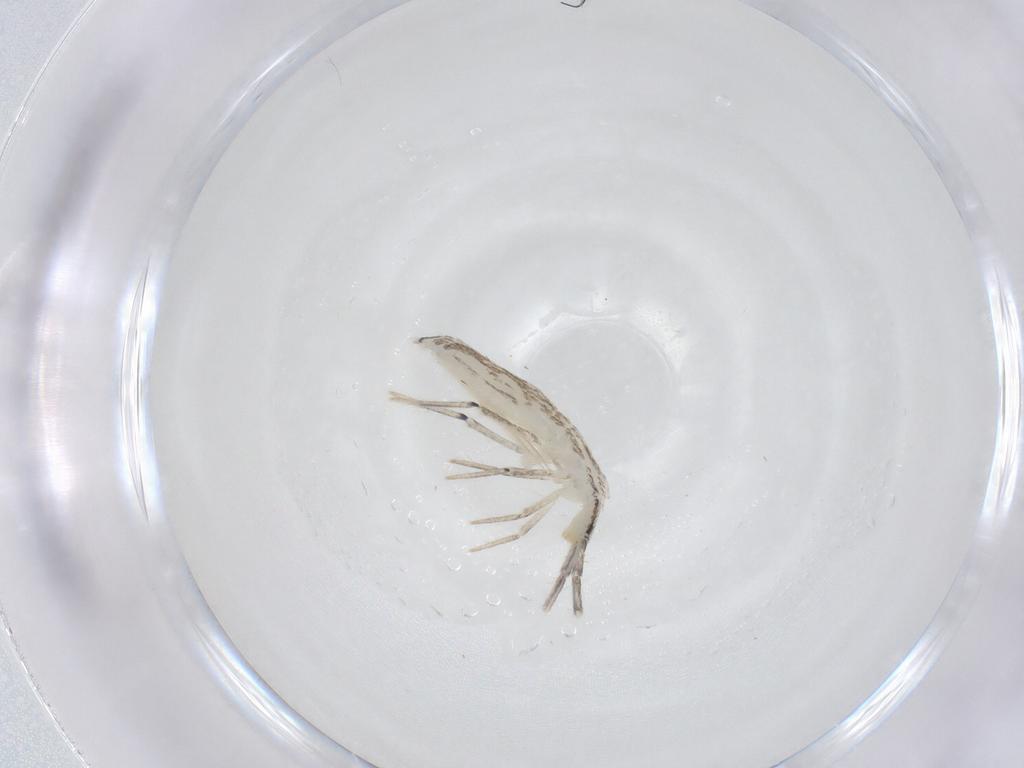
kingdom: Animalia
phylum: Arthropoda
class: Collembola
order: Entomobryomorpha
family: Entomobryidae
